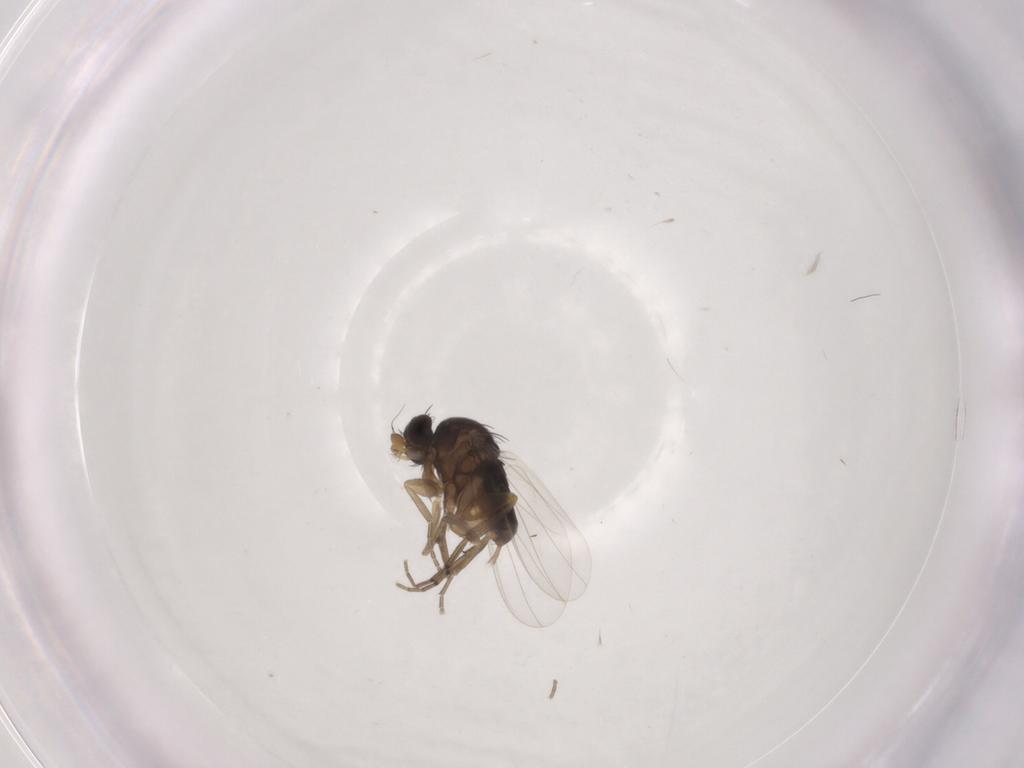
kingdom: Animalia
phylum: Arthropoda
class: Insecta
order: Diptera
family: Phoridae
